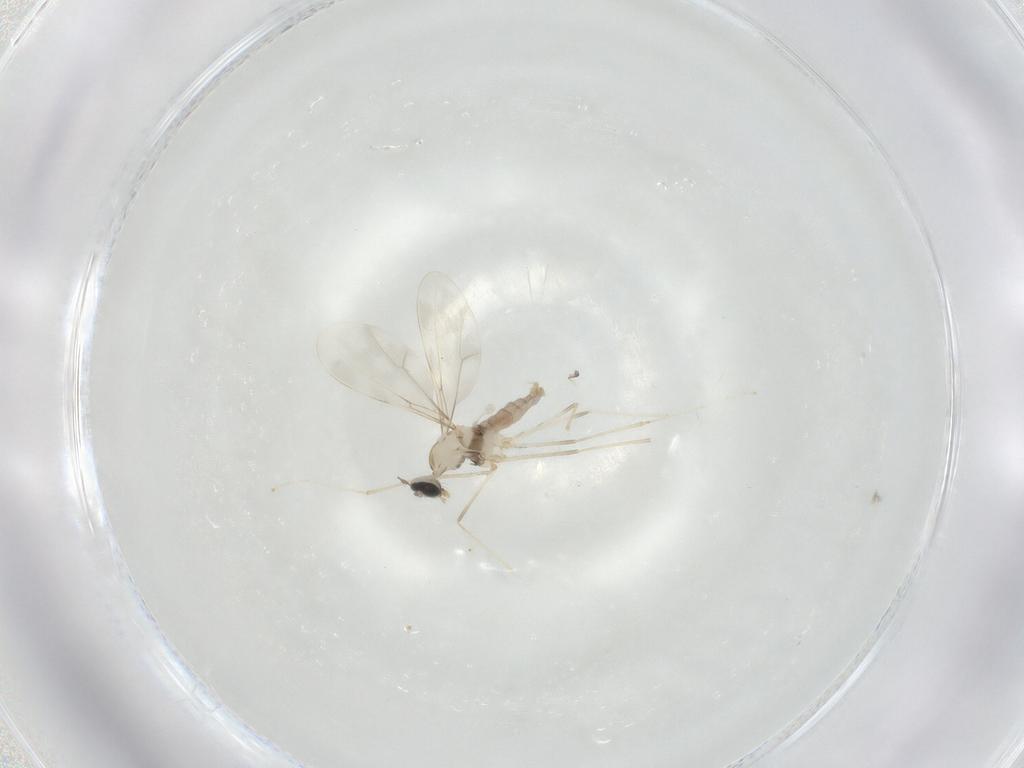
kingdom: Animalia
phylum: Arthropoda
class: Insecta
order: Diptera
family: Cecidomyiidae
